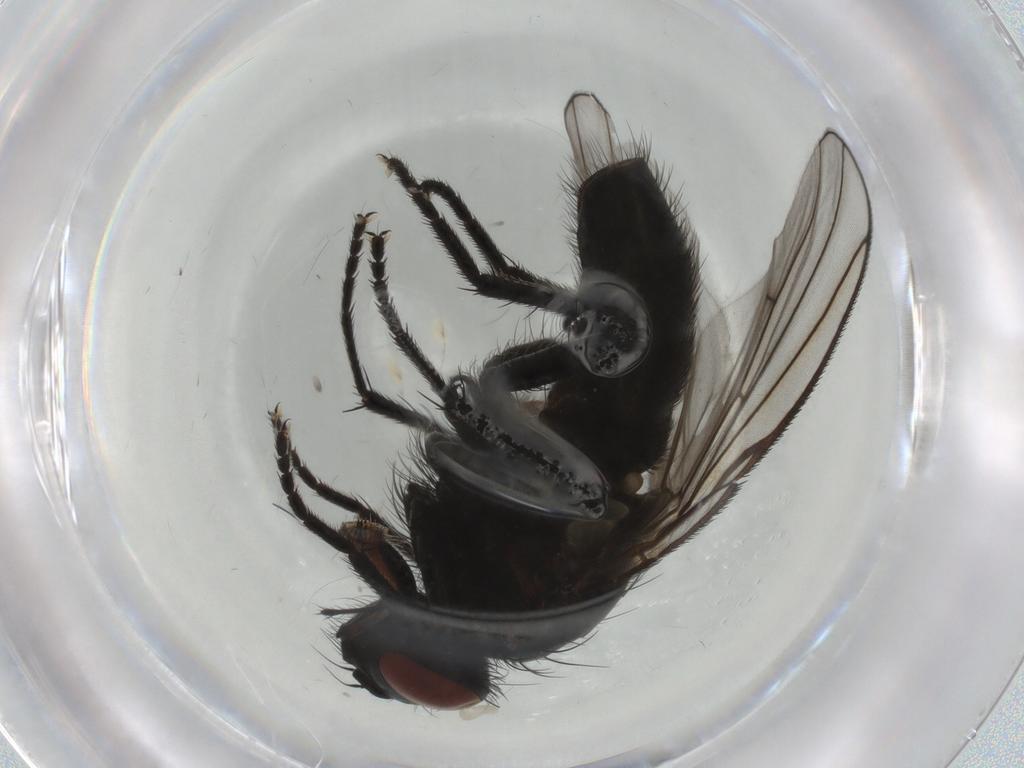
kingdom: Animalia
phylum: Arthropoda
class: Insecta
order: Diptera
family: Muscidae
